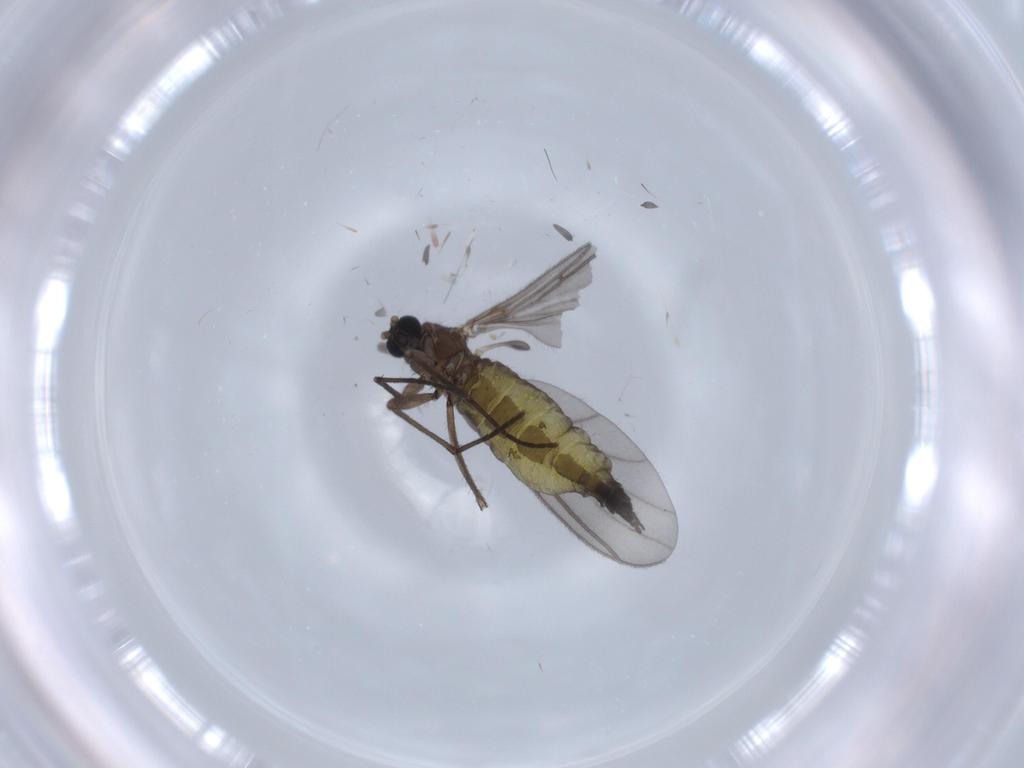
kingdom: Animalia
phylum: Arthropoda
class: Insecta
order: Diptera
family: Sciaridae
